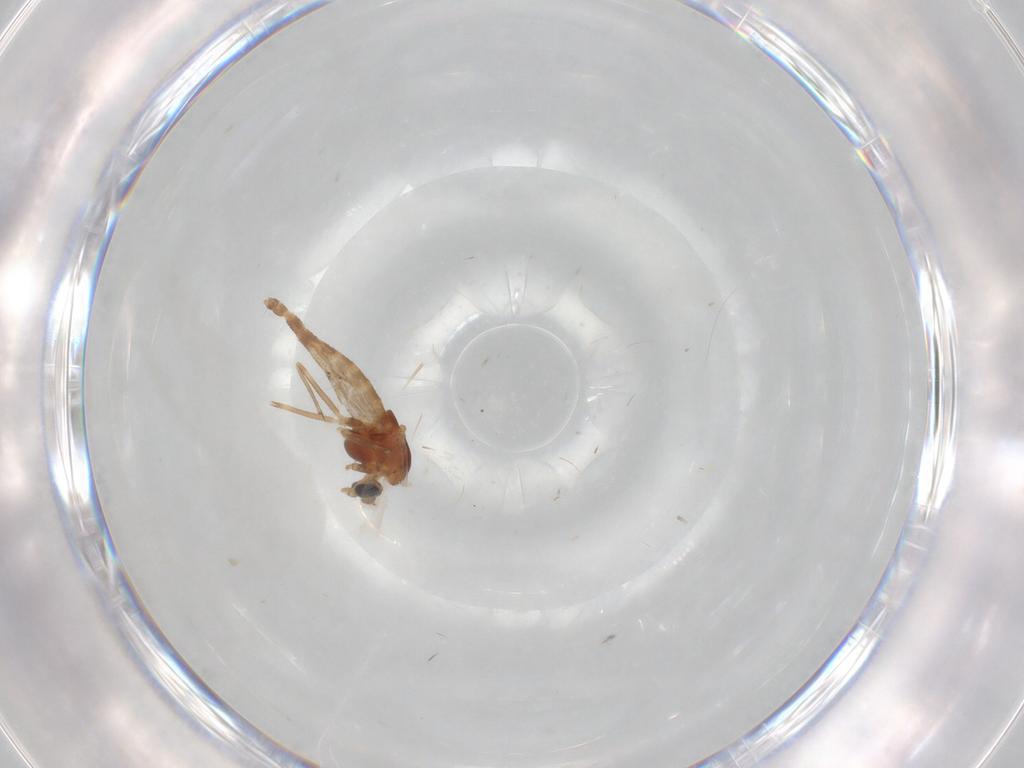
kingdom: Animalia
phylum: Arthropoda
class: Insecta
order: Diptera
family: Chironomidae
